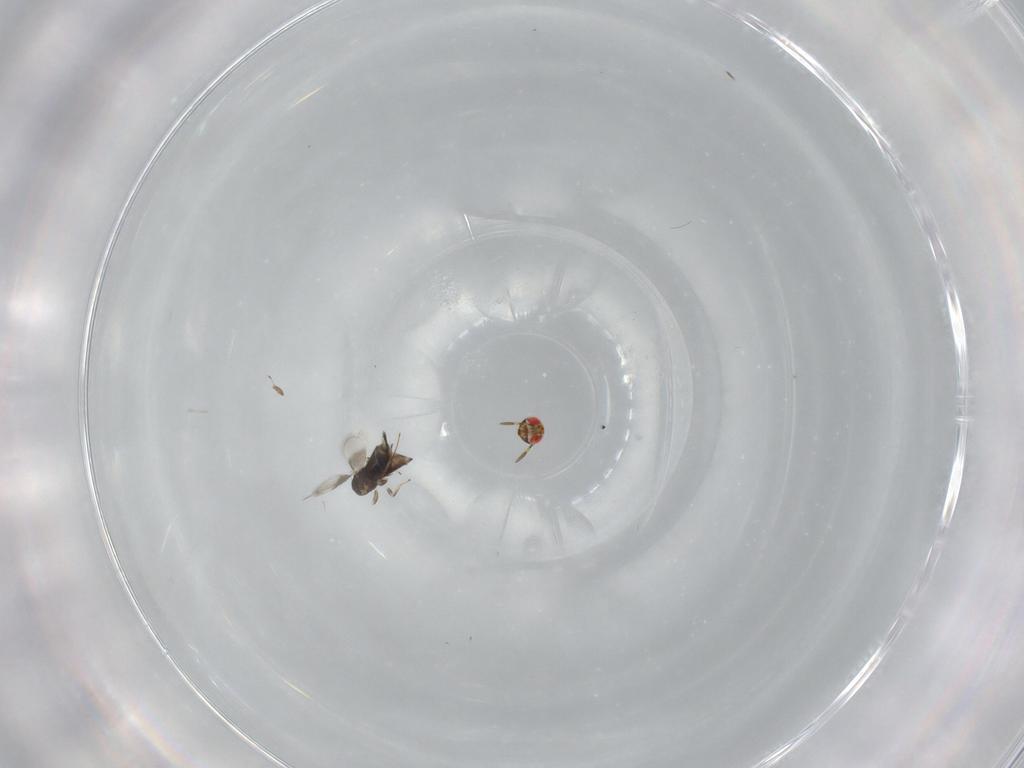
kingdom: Animalia
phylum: Arthropoda
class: Insecta
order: Hymenoptera
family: Azotidae
